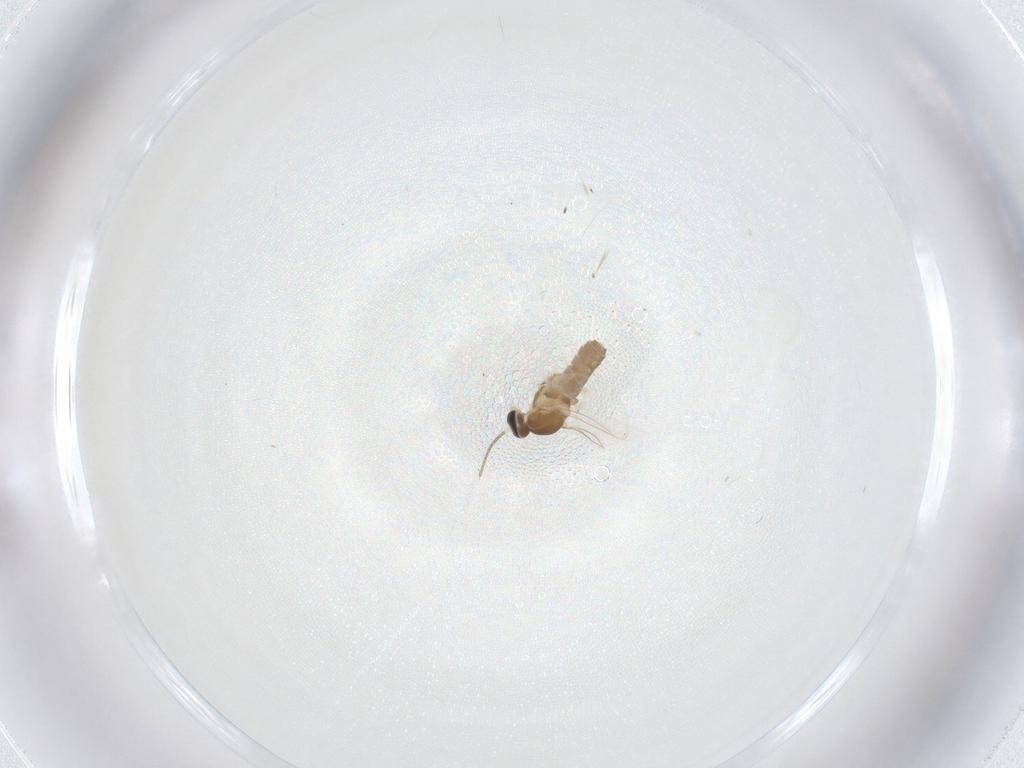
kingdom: Animalia
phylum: Arthropoda
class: Insecta
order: Diptera
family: Cecidomyiidae
